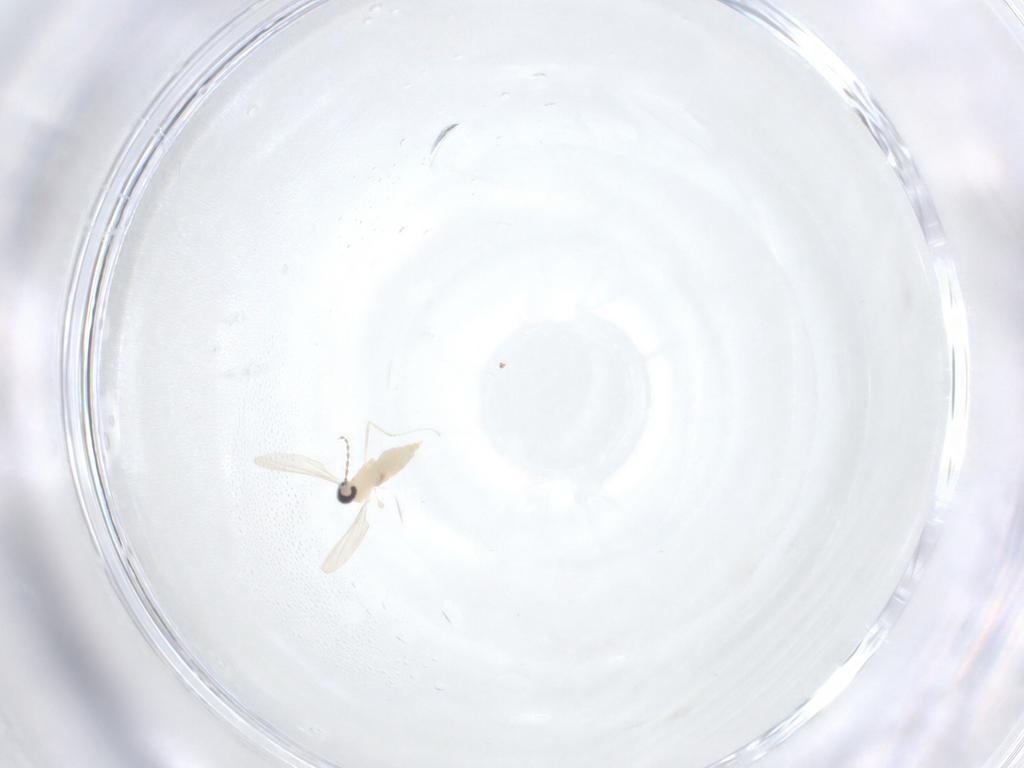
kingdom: Animalia
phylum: Arthropoda
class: Insecta
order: Diptera
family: Cecidomyiidae
